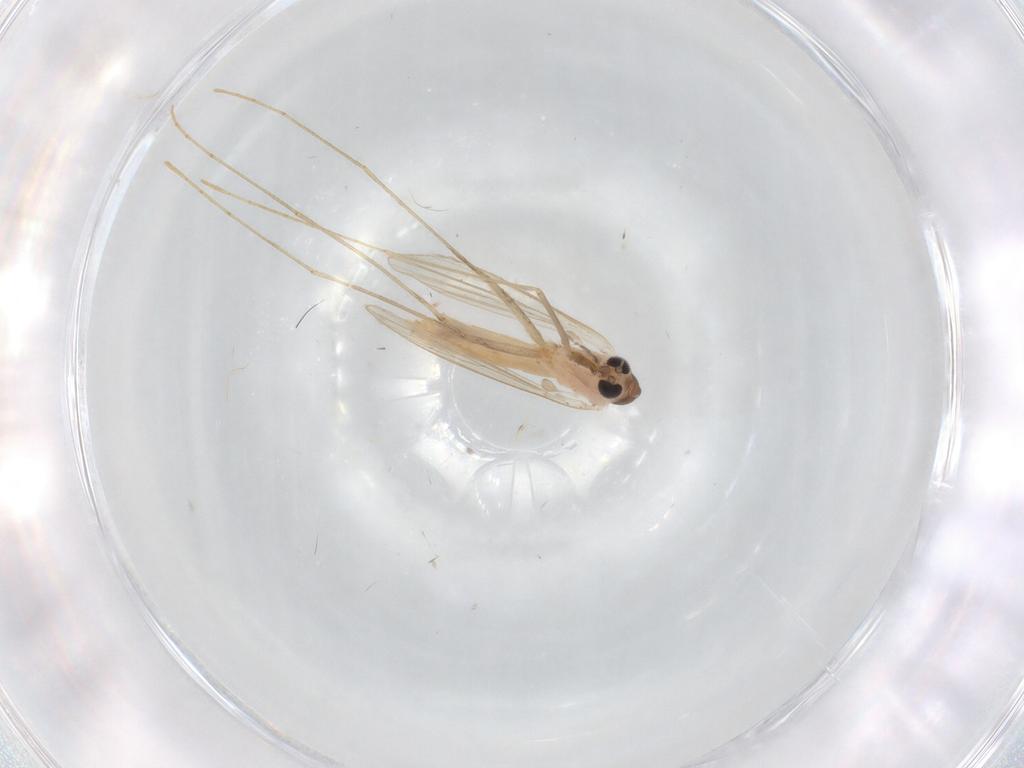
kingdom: Animalia
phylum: Arthropoda
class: Insecta
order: Diptera
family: Psychodidae
